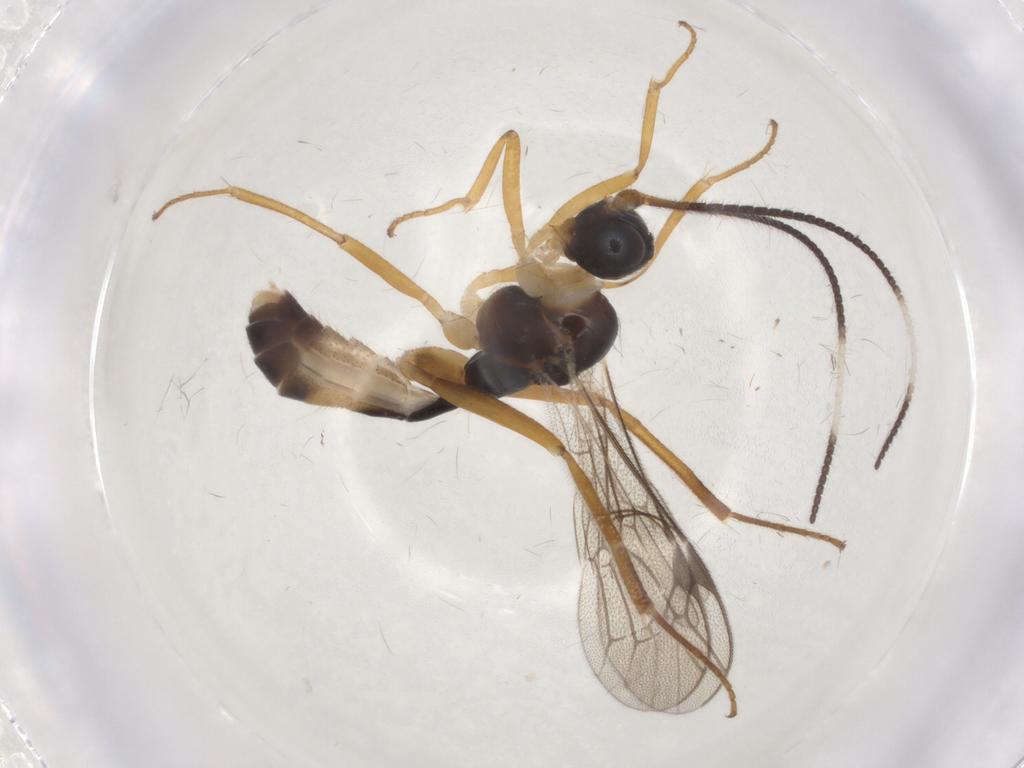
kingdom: Animalia
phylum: Arthropoda
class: Insecta
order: Hymenoptera
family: Ichneumonidae
